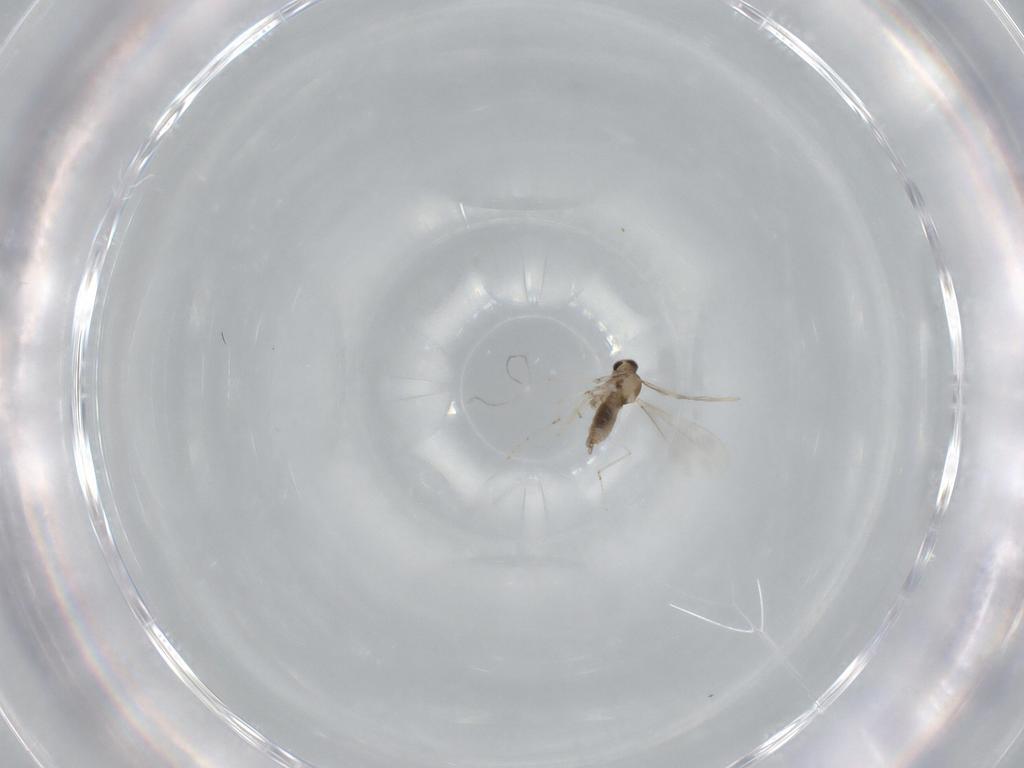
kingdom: Animalia
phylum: Arthropoda
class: Insecta
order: Diptera
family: Cecidomyiidae
